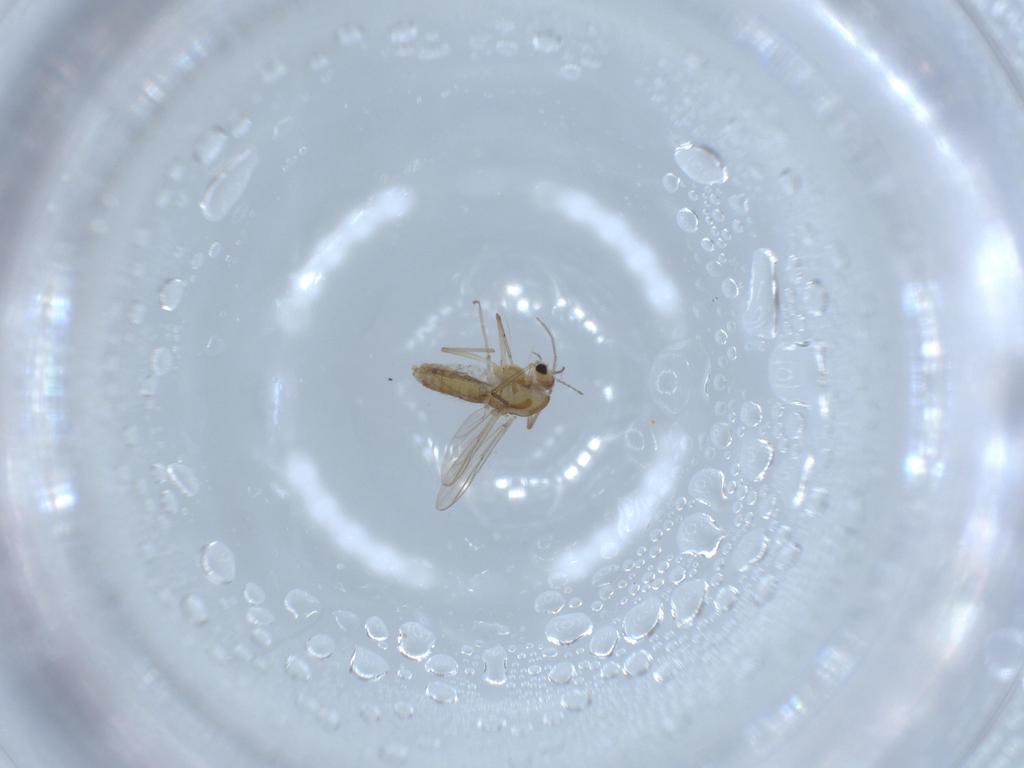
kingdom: Animalia
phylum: Arthropoda
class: Insecta
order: Diptera
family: Chironomidae
